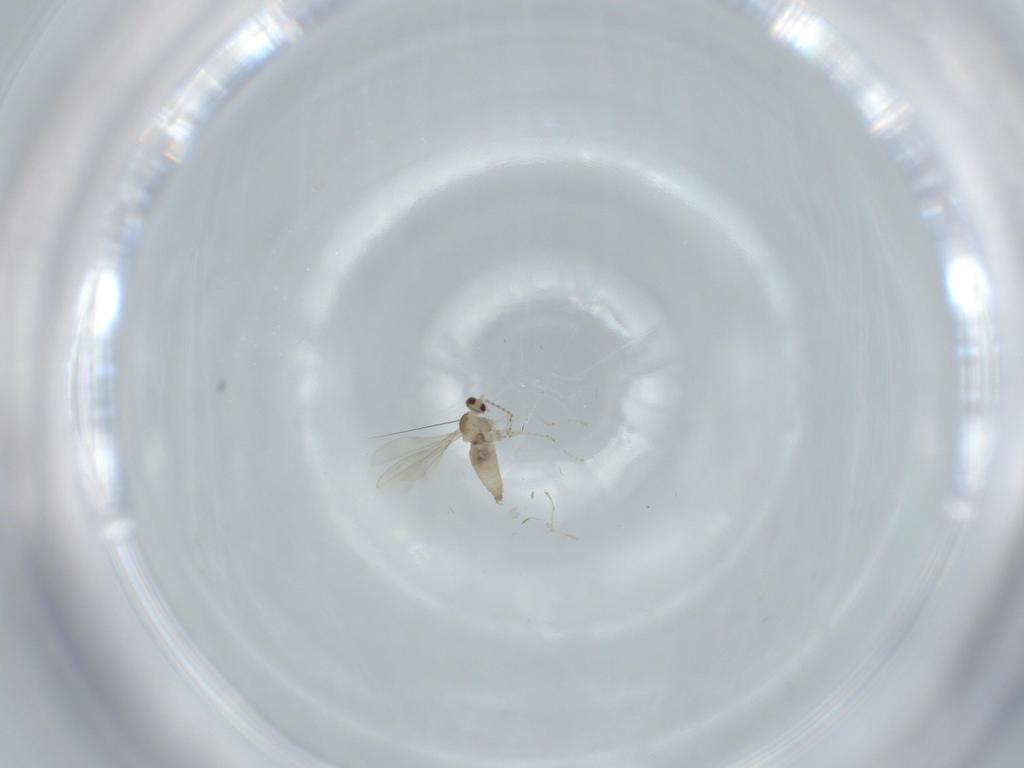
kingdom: Animalia
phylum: Arthropoda
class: Insecta
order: Diptera
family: Cecidomyiidae
